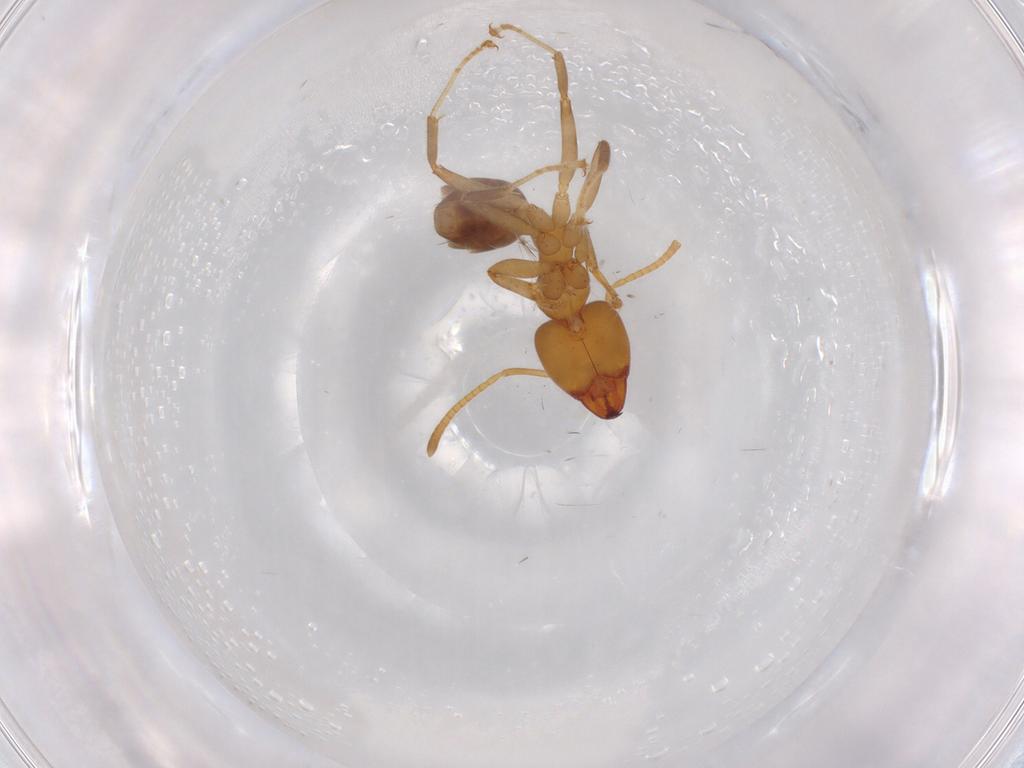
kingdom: Animalia
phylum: Arthropoda
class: Insecta
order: Hymenoptera
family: Formicidae
